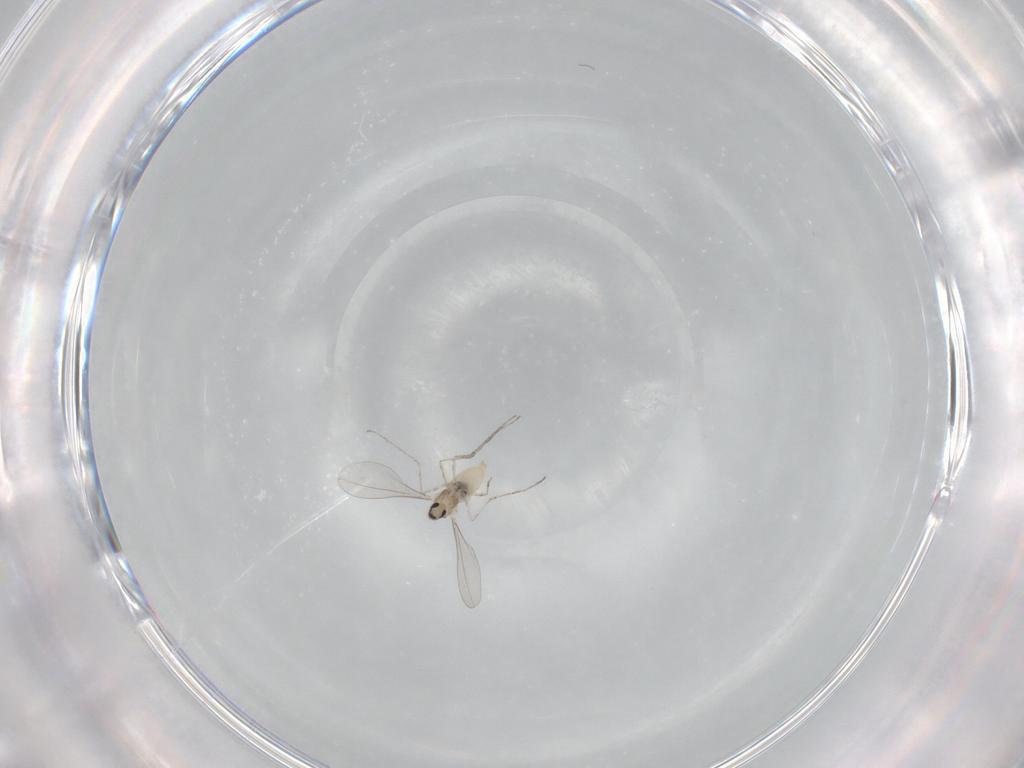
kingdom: Animalia
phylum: Arthropoda
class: Insecta
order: Diptera
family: Cecidomyiidae
